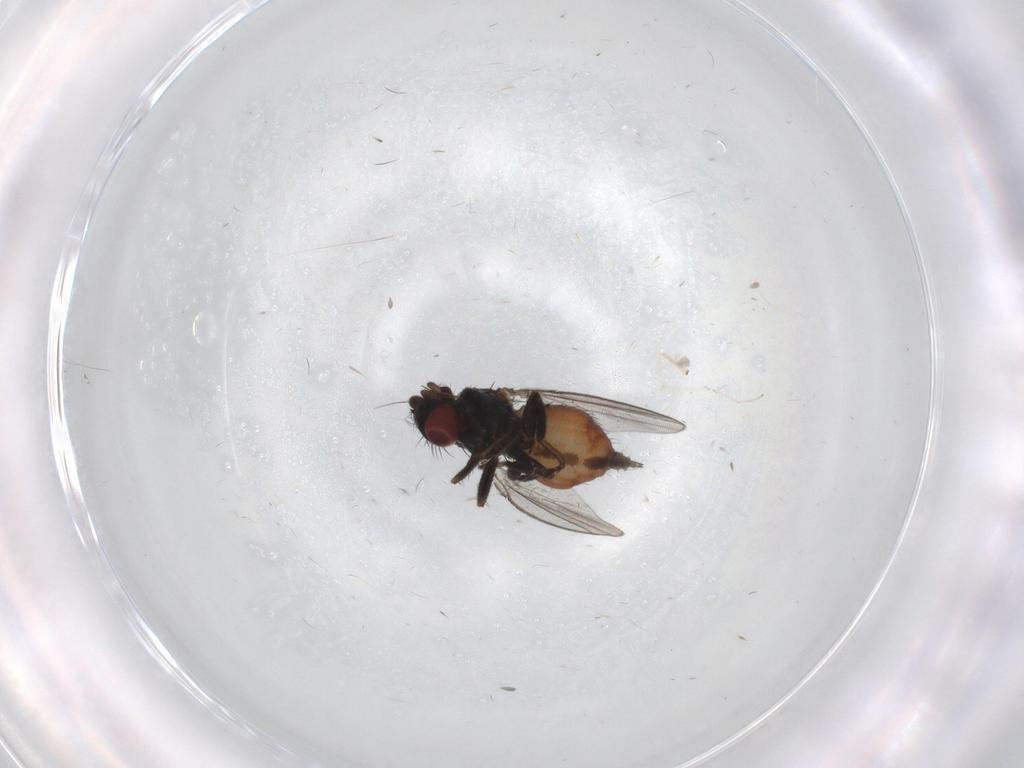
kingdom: Animalia
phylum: Arthropoda
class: Insecta
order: Diptera
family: Milichiidae
